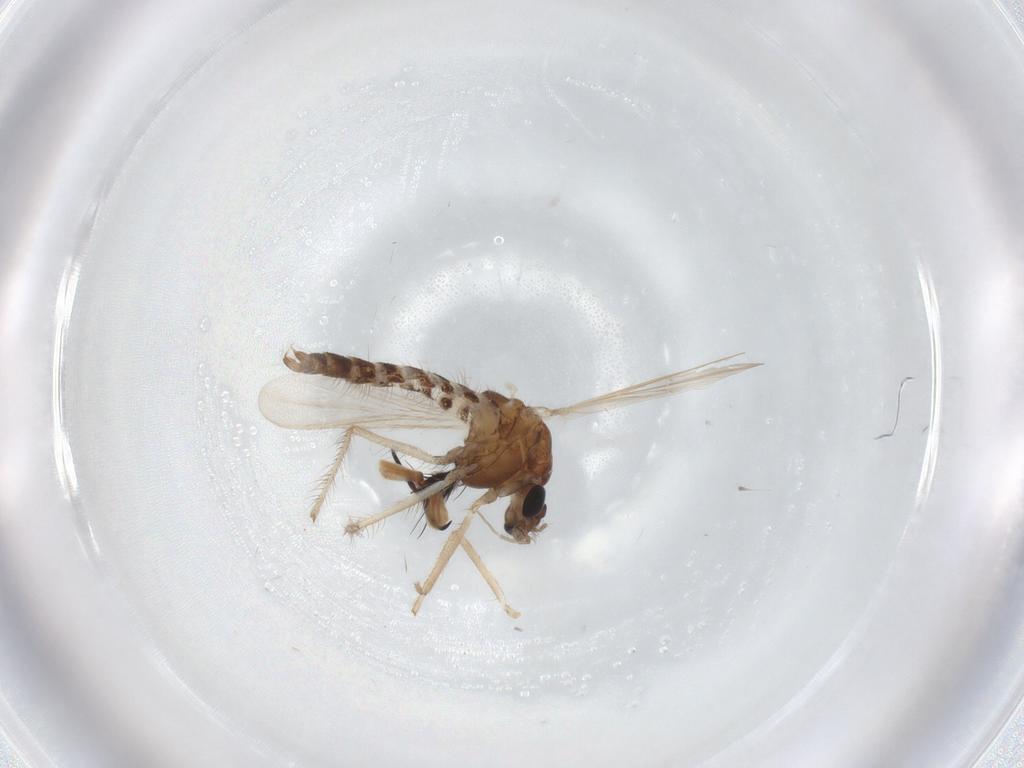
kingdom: Animalia
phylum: Arthropoda
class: Insecta
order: Diptera
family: Chironomidae
